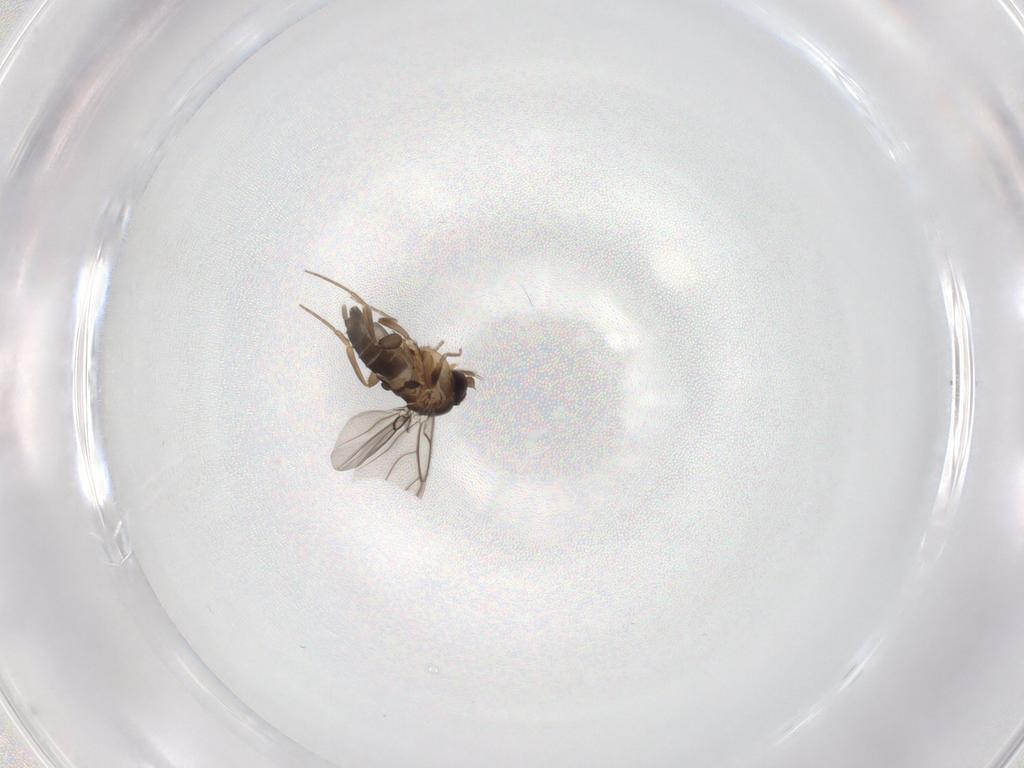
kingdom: Animalia
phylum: Arthropoda
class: Insecta
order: Diptera
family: Phoridae
